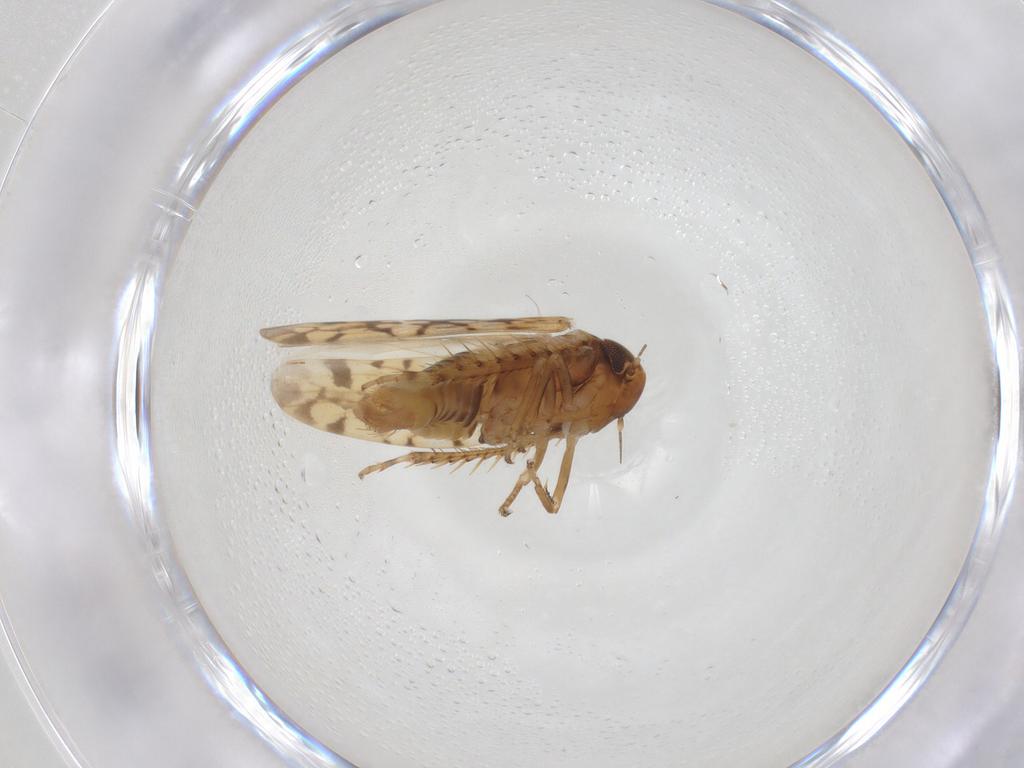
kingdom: Animalia
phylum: Arthropoda
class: Insecta
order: Hemiptera
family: Cicadellidae
